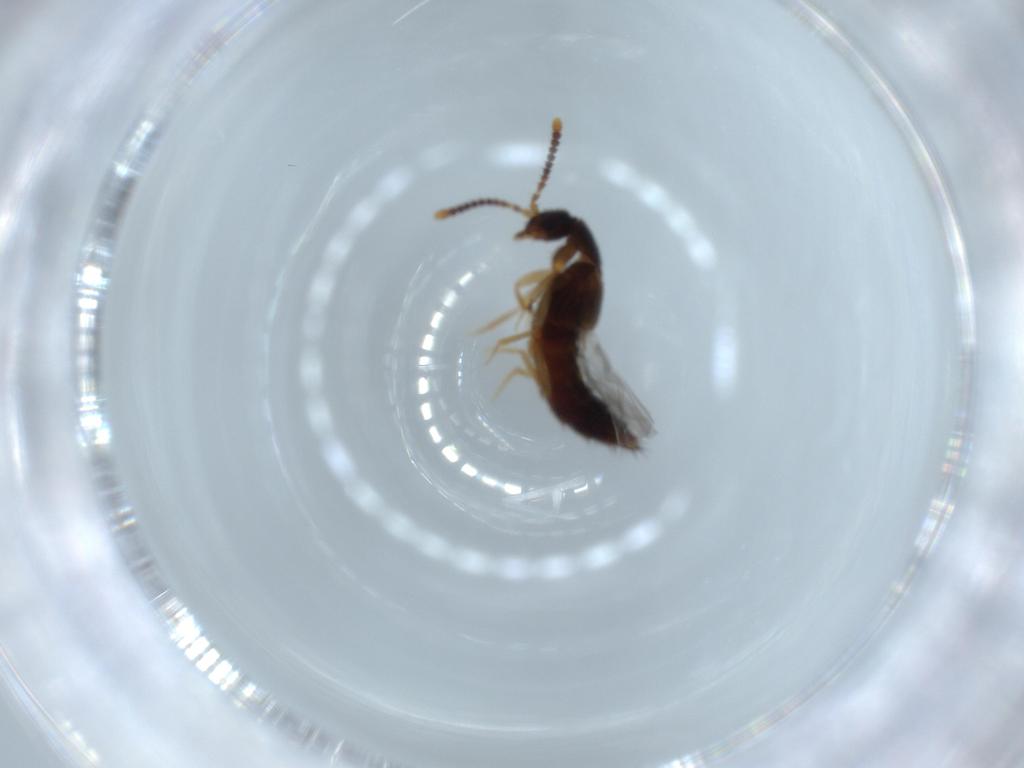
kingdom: Animalia
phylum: Arthropoda
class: Insecta
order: Coleoptera
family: Staphylinidae
